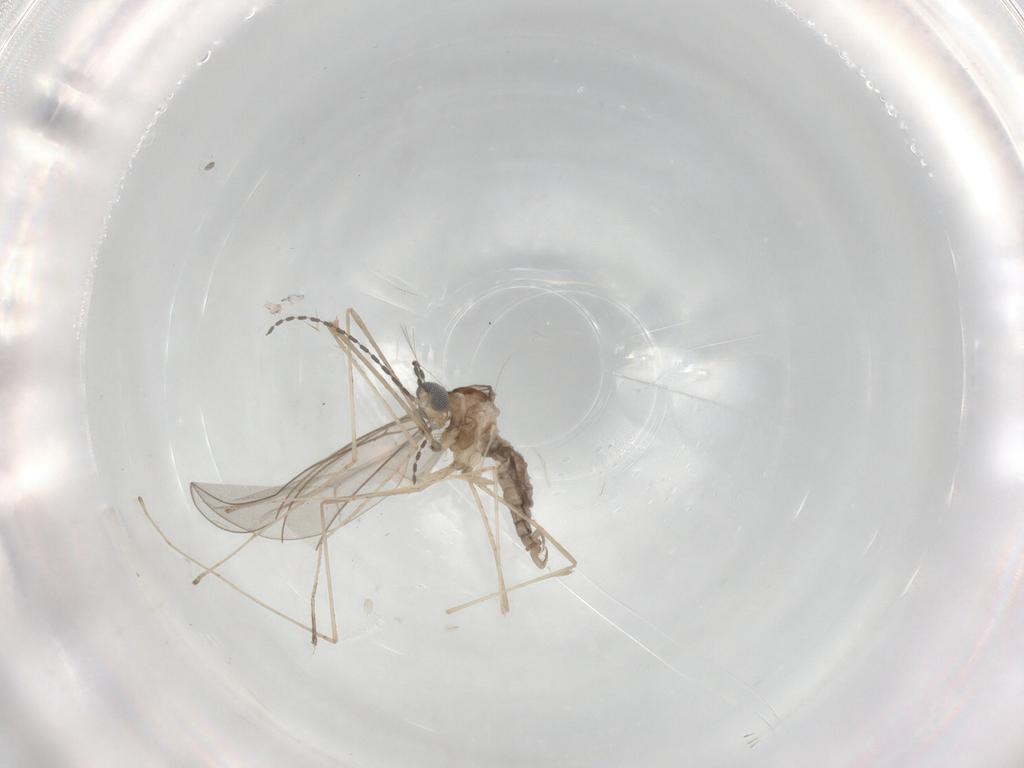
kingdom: Animalia
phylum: Arthropoda
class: Insecta
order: Diptera
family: Cecidomyiidae
